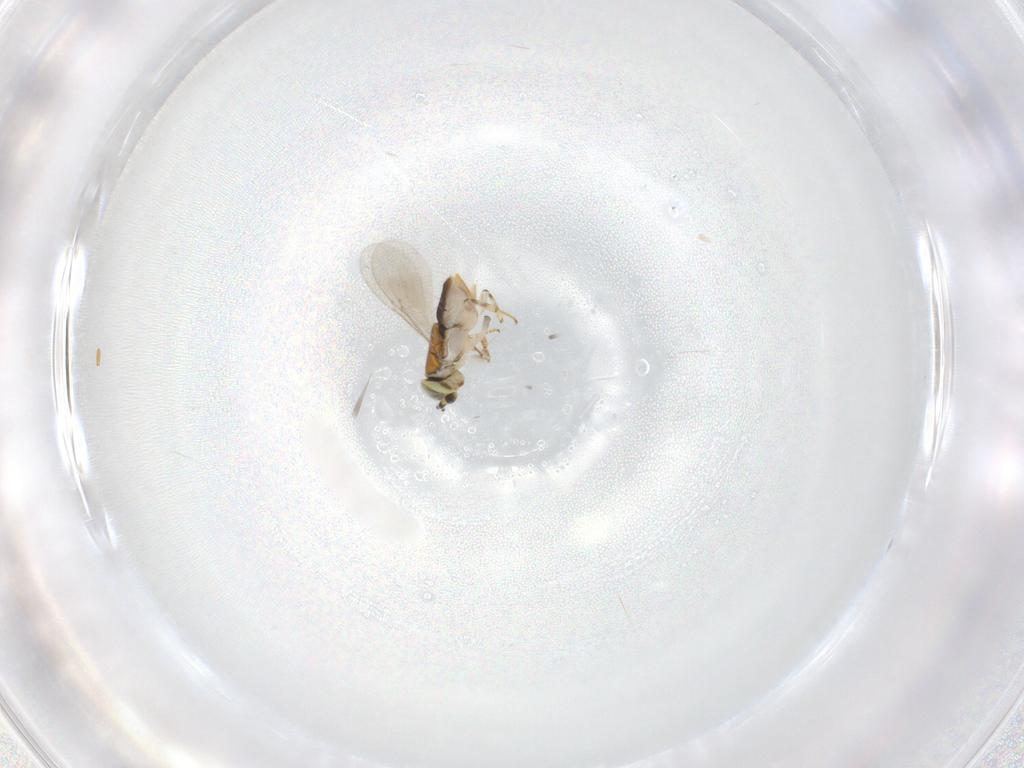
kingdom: Animalia
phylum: Arthropoda
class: Insecta
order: Hymenoptera
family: Encyrtidae
